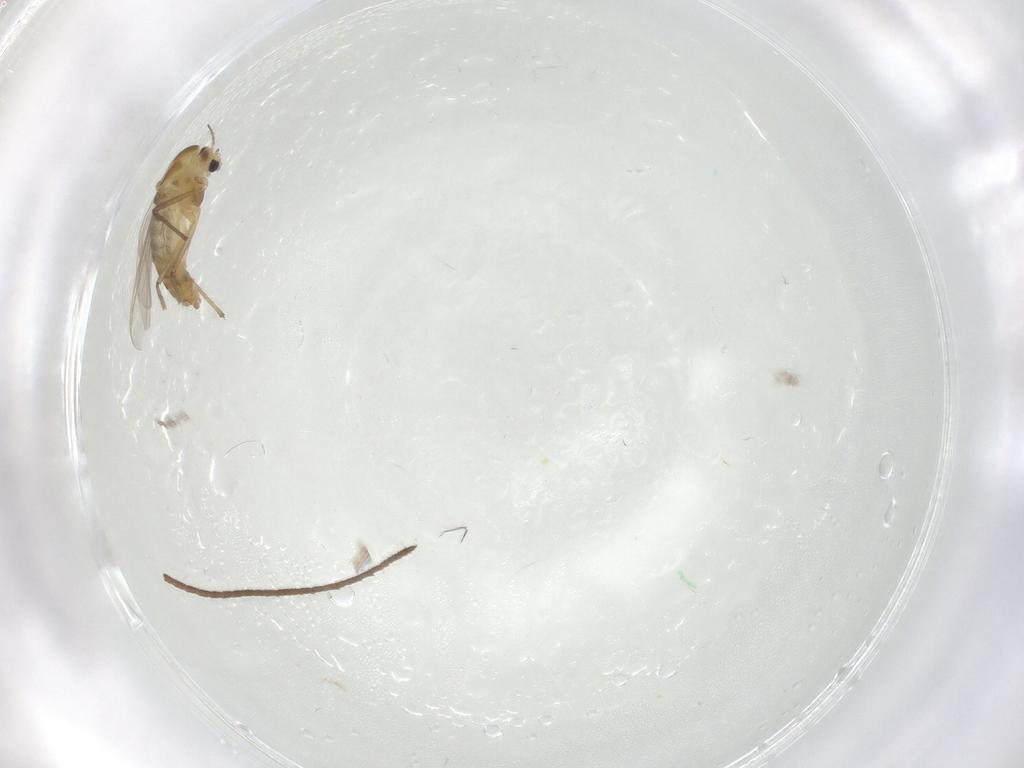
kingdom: Animalia
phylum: Arthropoda
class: Insecta
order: Diptera
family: Chironomidae
